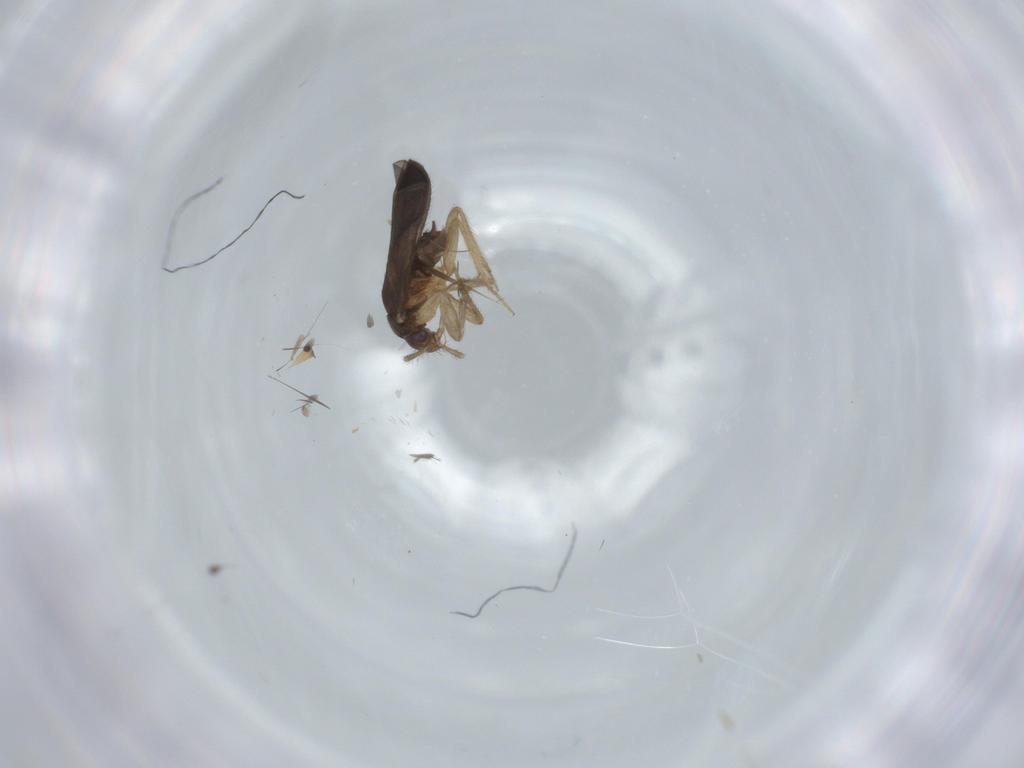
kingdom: Animalia
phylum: Arthropoda
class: Insecta
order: Hemiptera
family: Ceratocombidae
